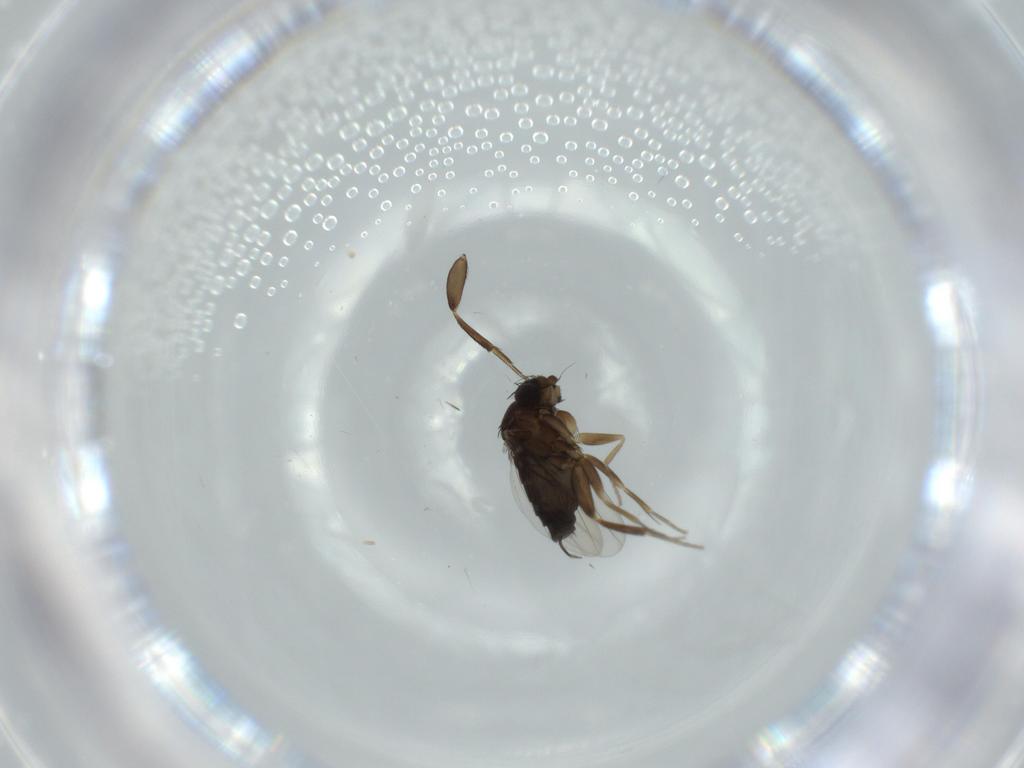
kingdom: Animalia
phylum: Arthropoda
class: Insecta
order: Diptera
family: Phoridae
